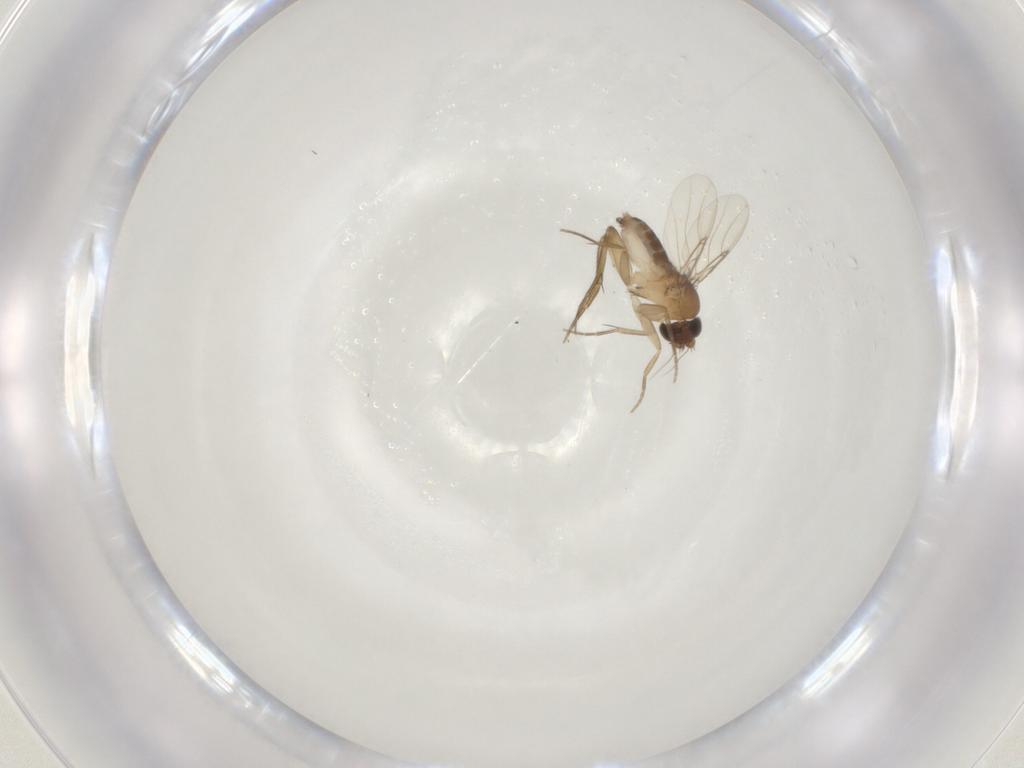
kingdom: Animalia
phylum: Arthropoda
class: Insecta
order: Diptera
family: Phoridae
